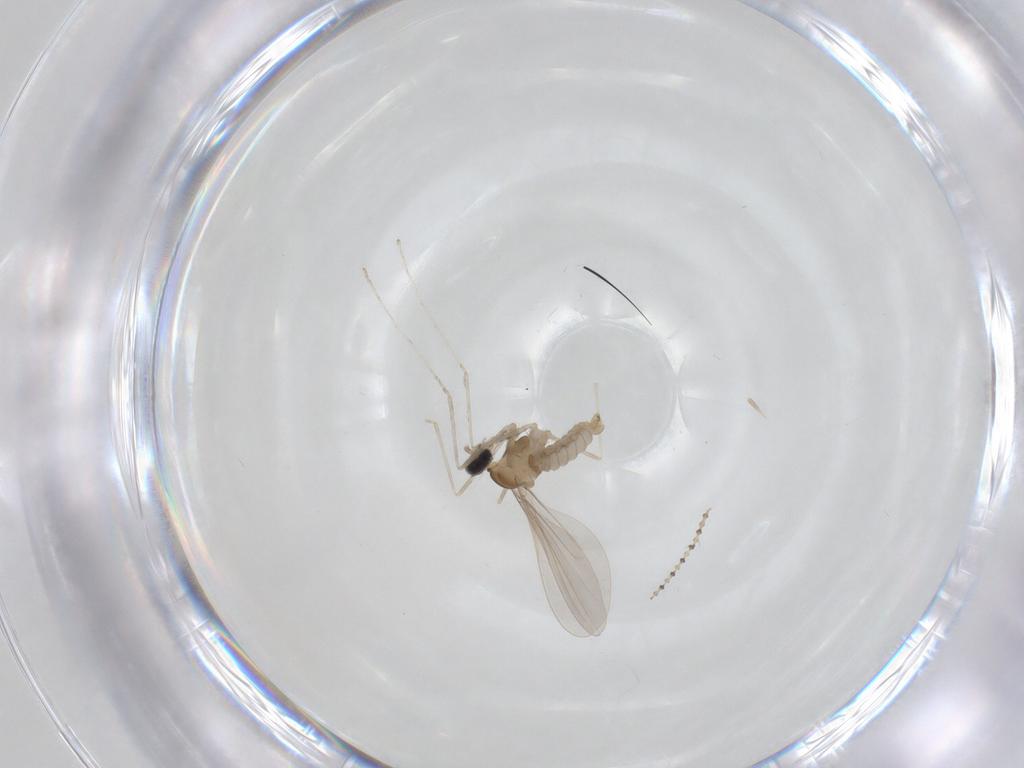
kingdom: Animalia
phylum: Arthropoda
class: Insecta
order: Diptera
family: Cecidomyiidae
